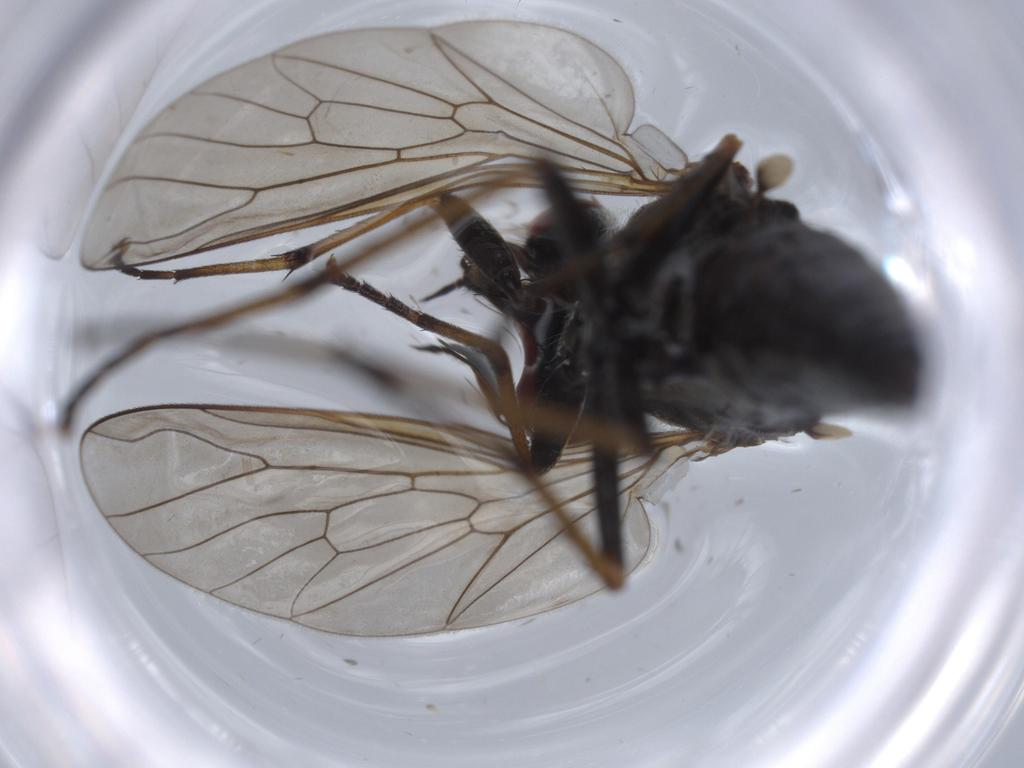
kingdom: Animalia
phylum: Arthropoda
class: Insecta
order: Diptera
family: Therevidae
